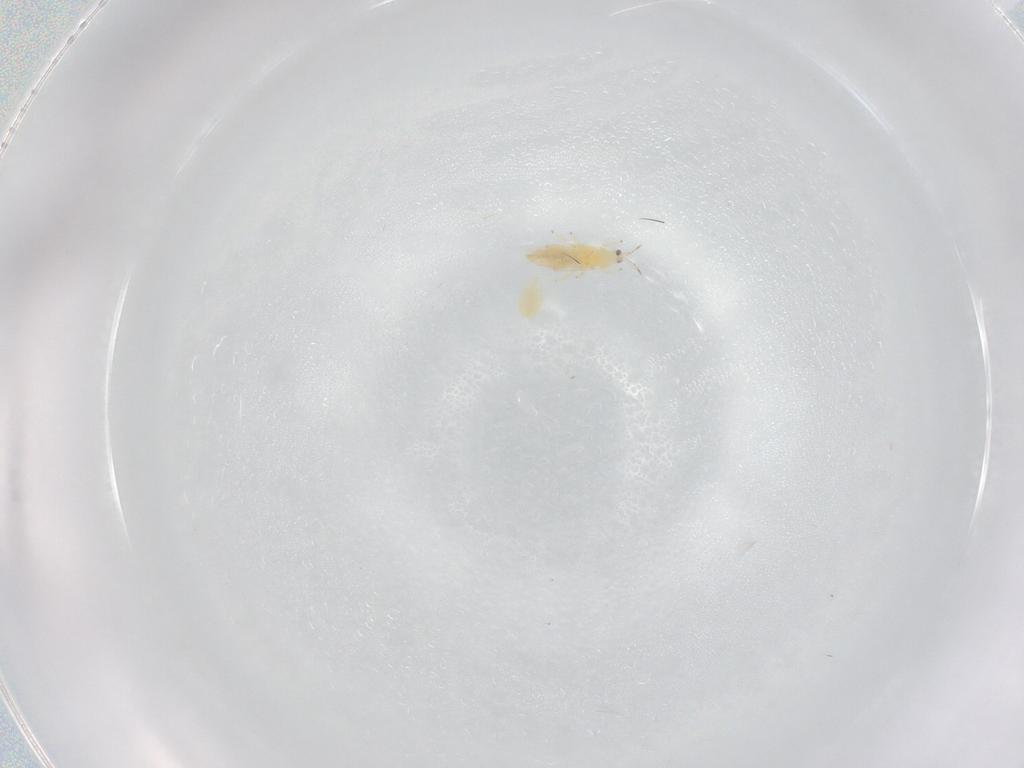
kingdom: Animalia
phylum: Arthropoda
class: Insecta
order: Thysanoptera
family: Thripidae
